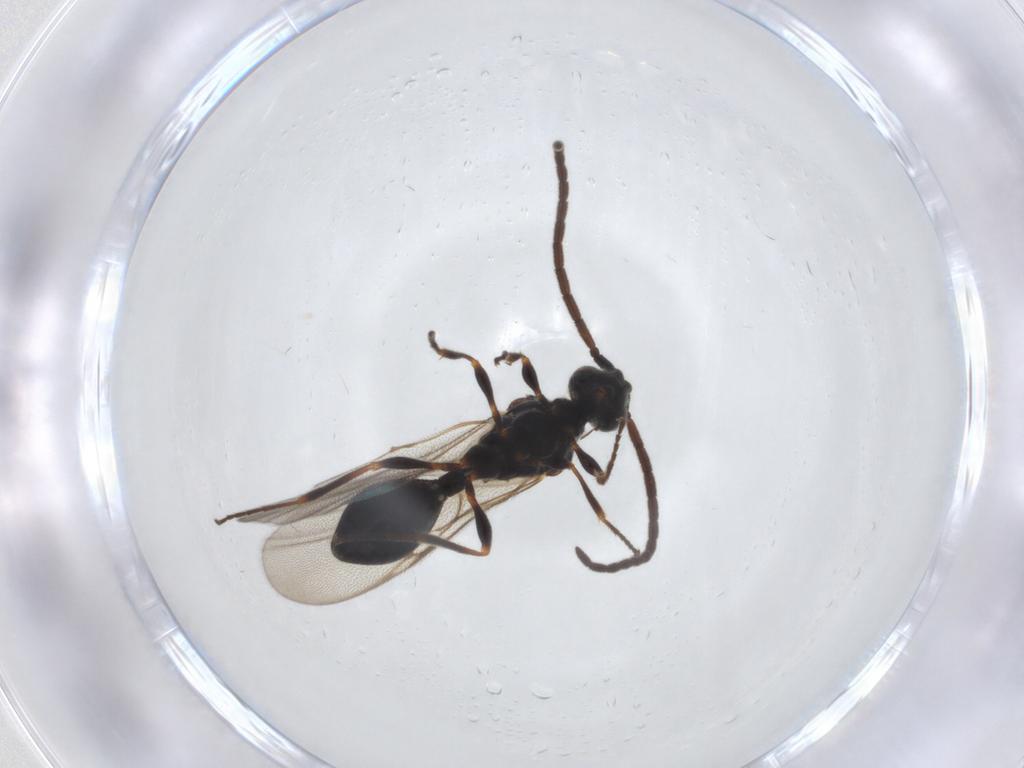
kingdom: Animalia
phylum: Arthropoda
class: Insecta
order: Hymenoptera
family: Diapriidae
